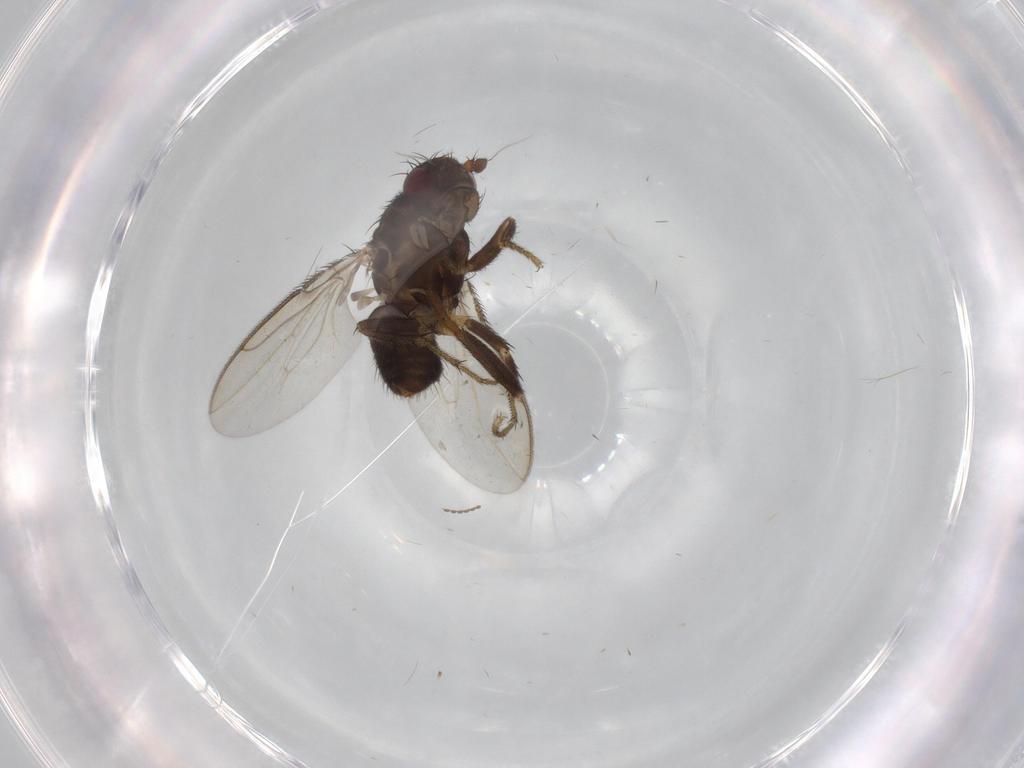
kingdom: Animalia
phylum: Arthropoda
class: Insecta
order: Diptera
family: Sphaeroceridae
